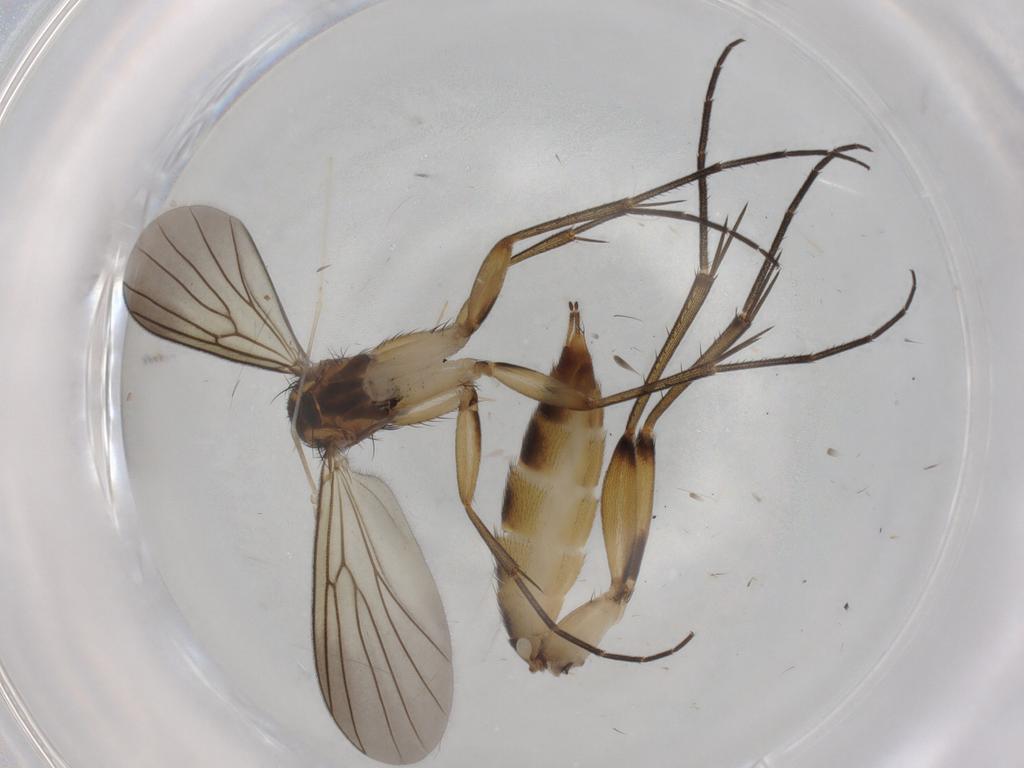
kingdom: Animalia
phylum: Arthropoda
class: Insecta
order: Diptera
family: Mycetophilidae
